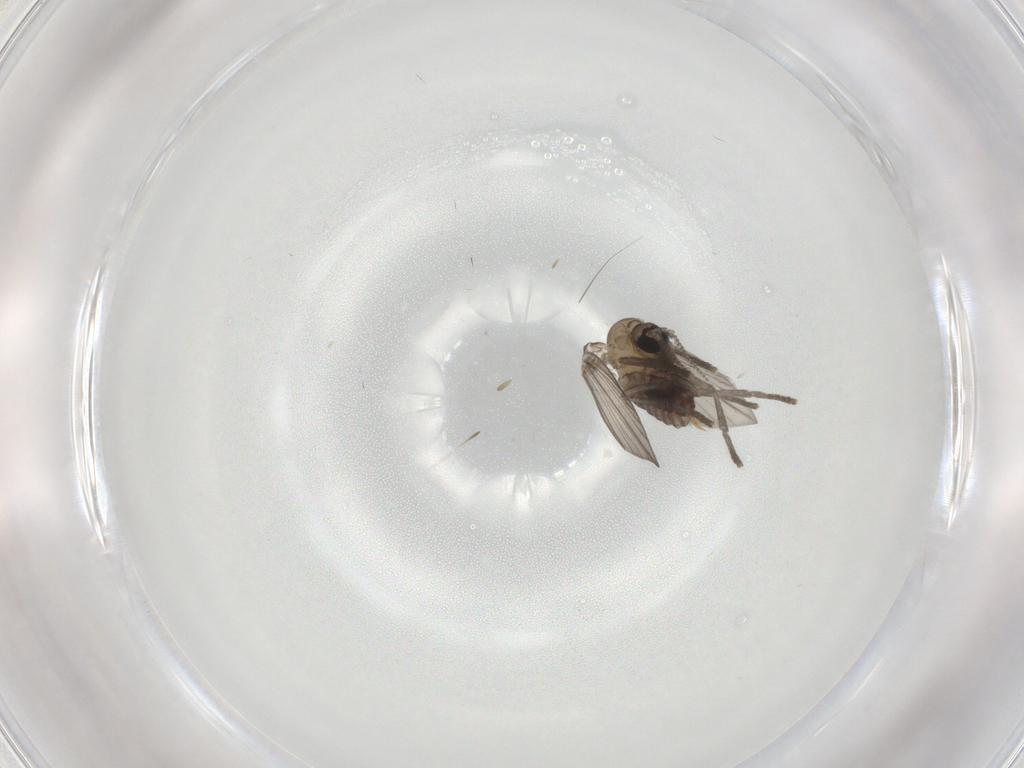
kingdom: Animalia
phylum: Arthropoda
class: Insecta
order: Diptera
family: Psychodidae
